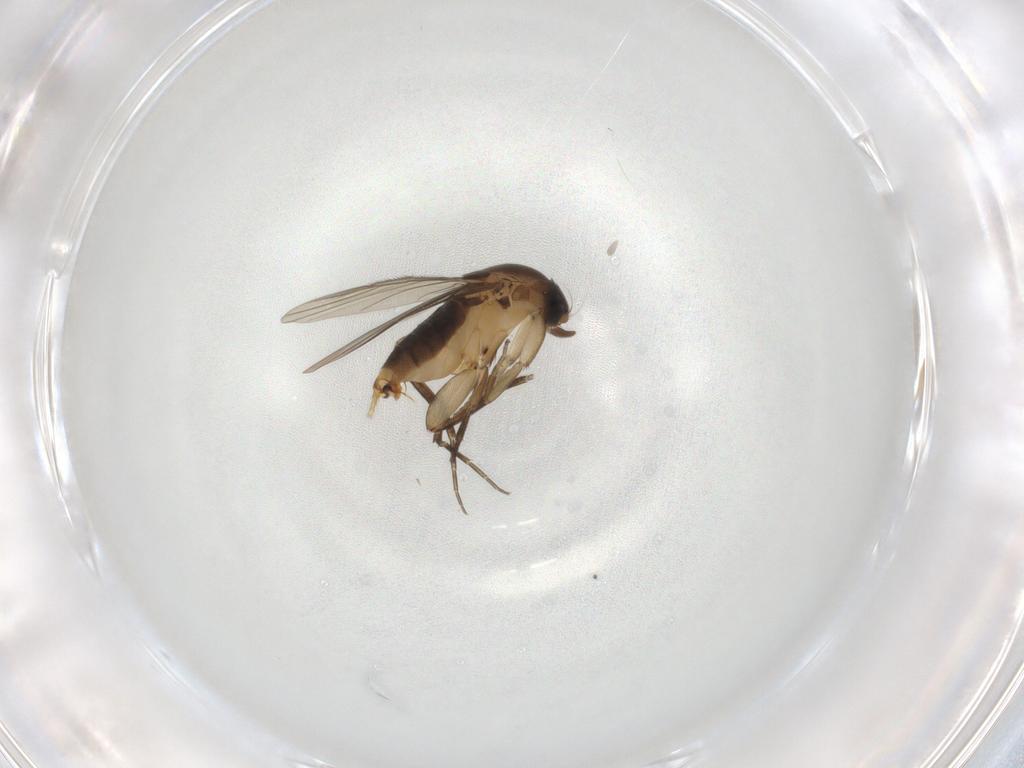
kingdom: Animalia
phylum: Arthropoda
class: Insecta
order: Diptera
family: Phoridae
